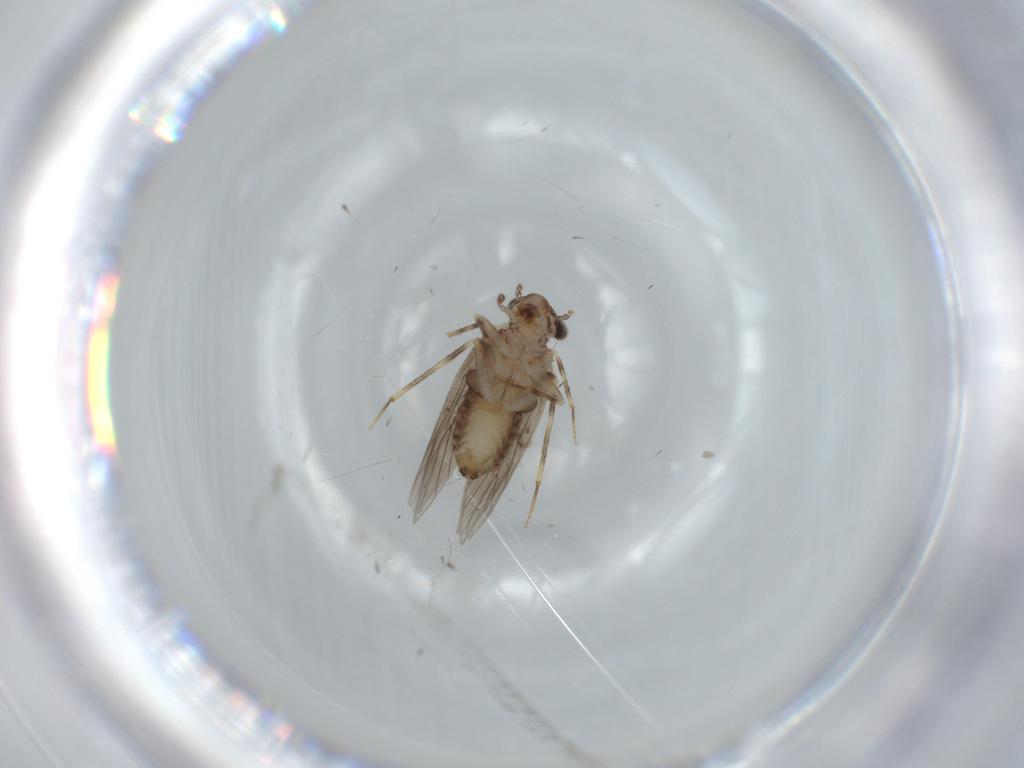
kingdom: Animalia
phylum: Arthropoda
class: Insecta
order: Psocodea
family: Lepidopsocidae
